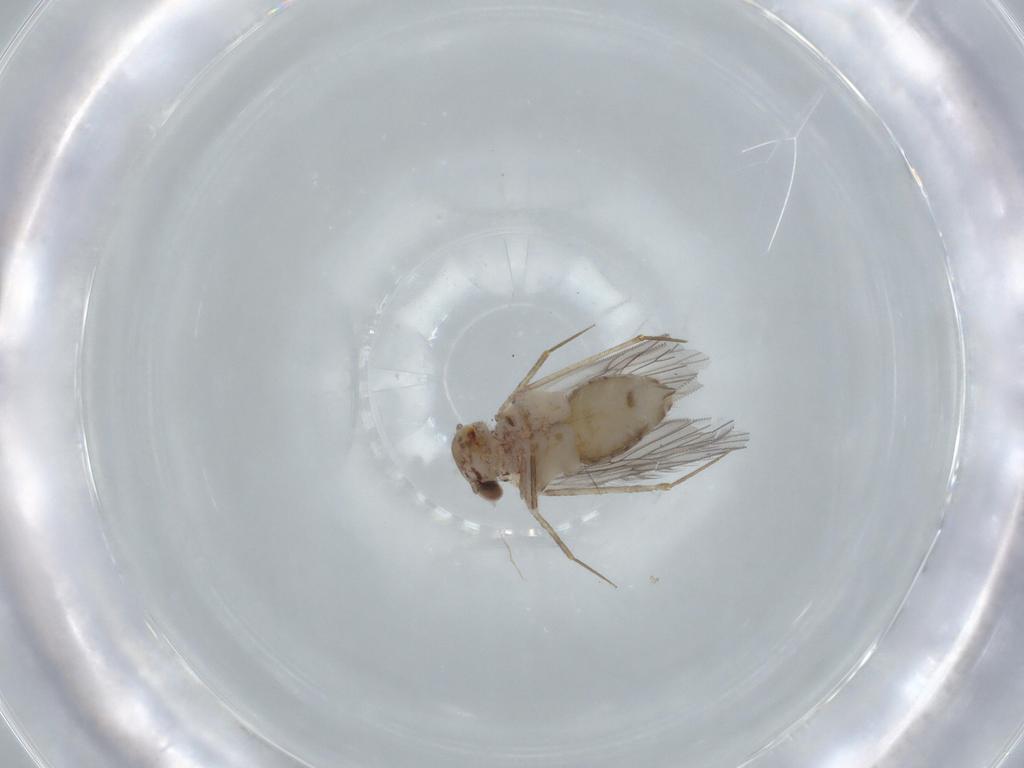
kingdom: Animalia
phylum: Arthropoda
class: Insecta
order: Psocodea
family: Lepidopsocidae
